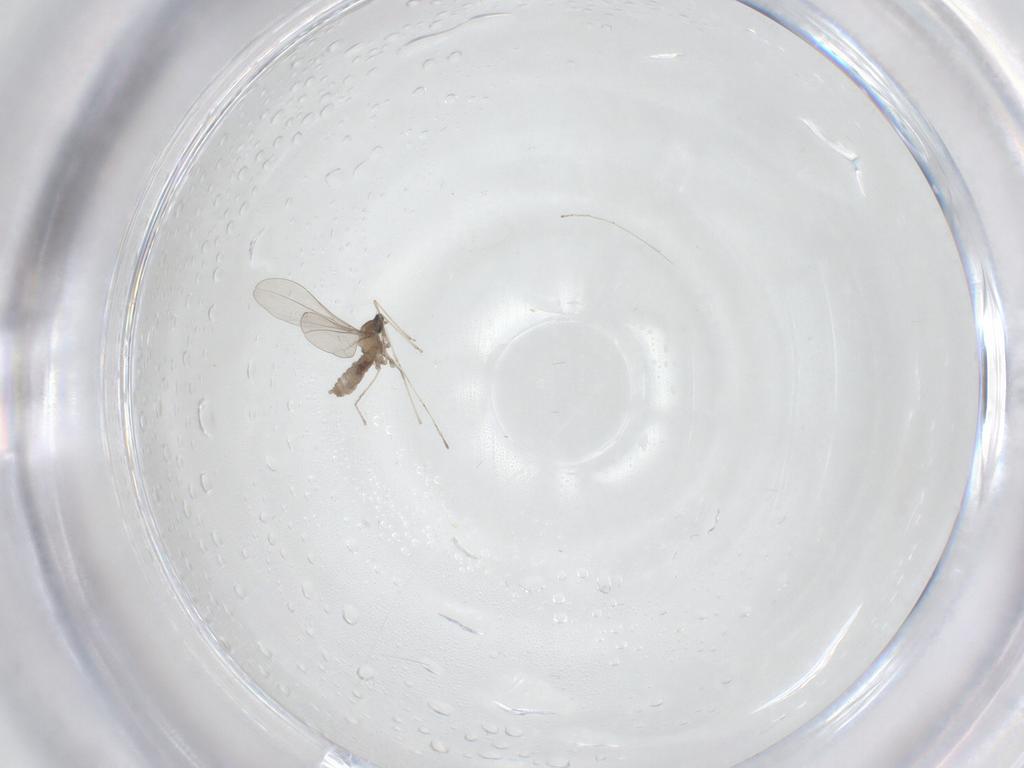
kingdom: Animalia
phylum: Arthropoda
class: Insecta
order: Diptera
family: Cecidomyiidae
